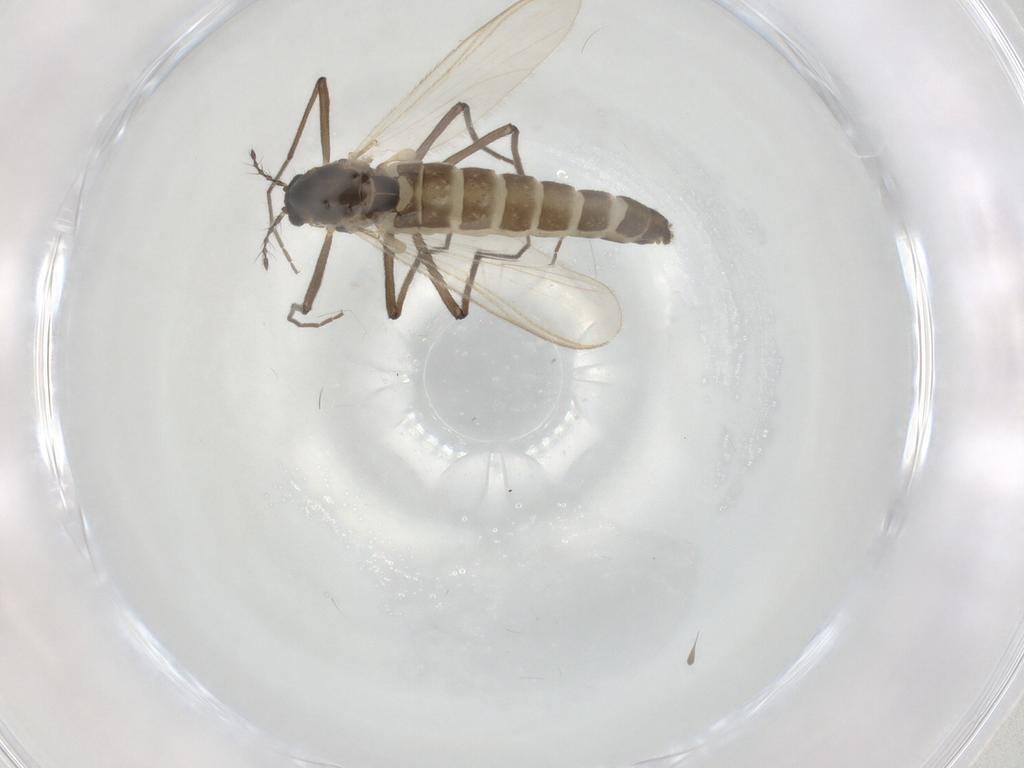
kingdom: Animalia
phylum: Arthropoda
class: Insecta
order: Diptera
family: Chironomidae
